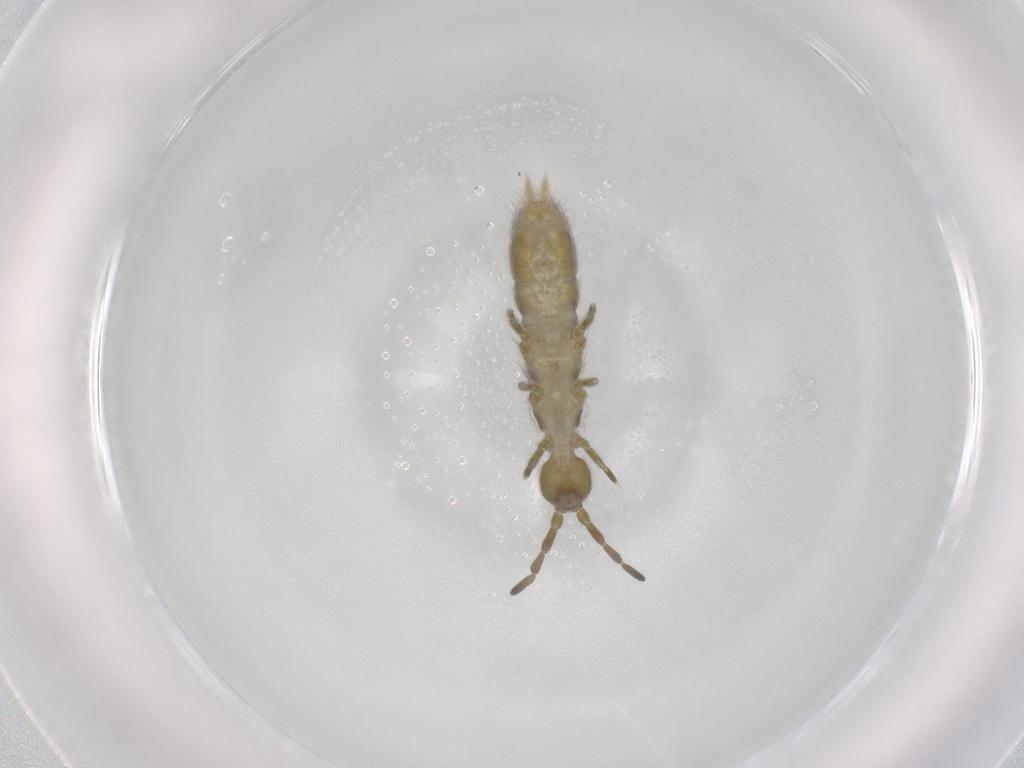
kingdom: Animalia
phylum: Arthropoda
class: Collembola
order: Entomobryomorpha
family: Isotomidae
